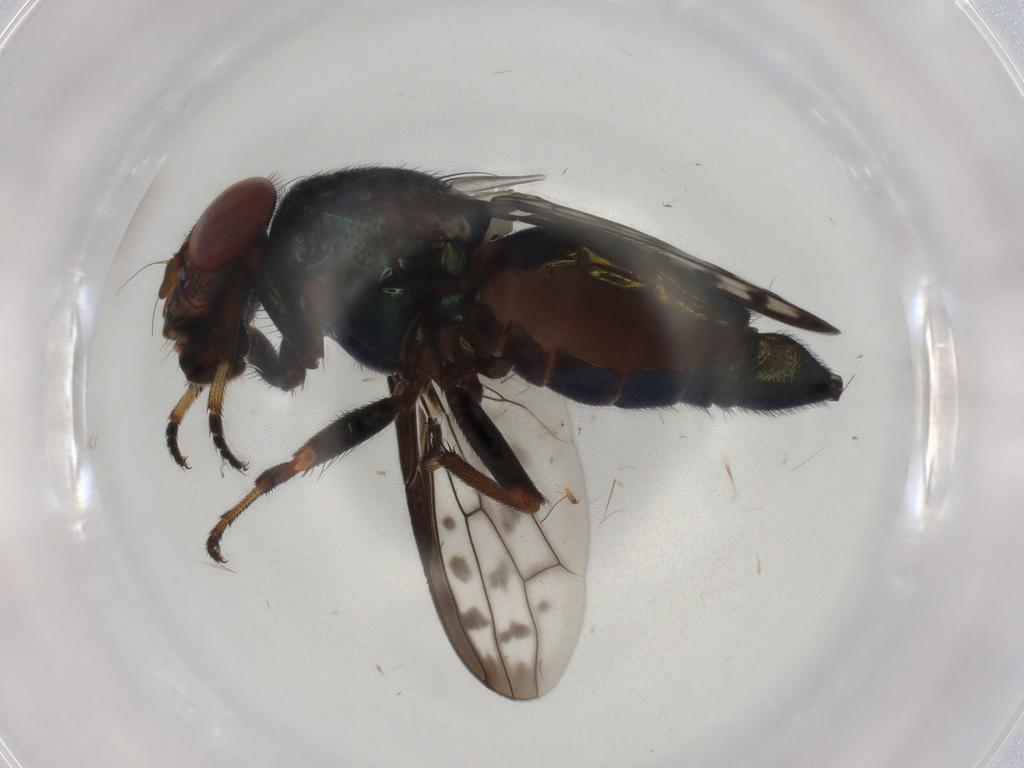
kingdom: Animalia
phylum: Arthropoda
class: Insecta
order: Diptera
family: Ulidiidae
